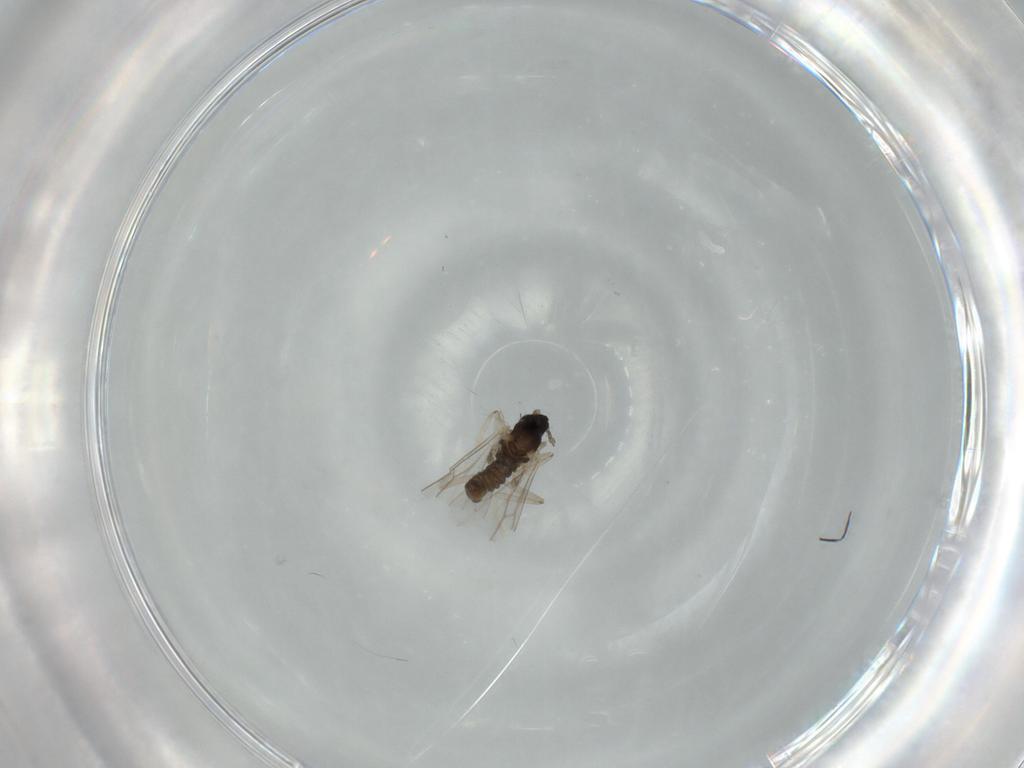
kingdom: Animalia
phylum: Arthropoda
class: Insecta
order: Diptera
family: Cecidomyiidae
